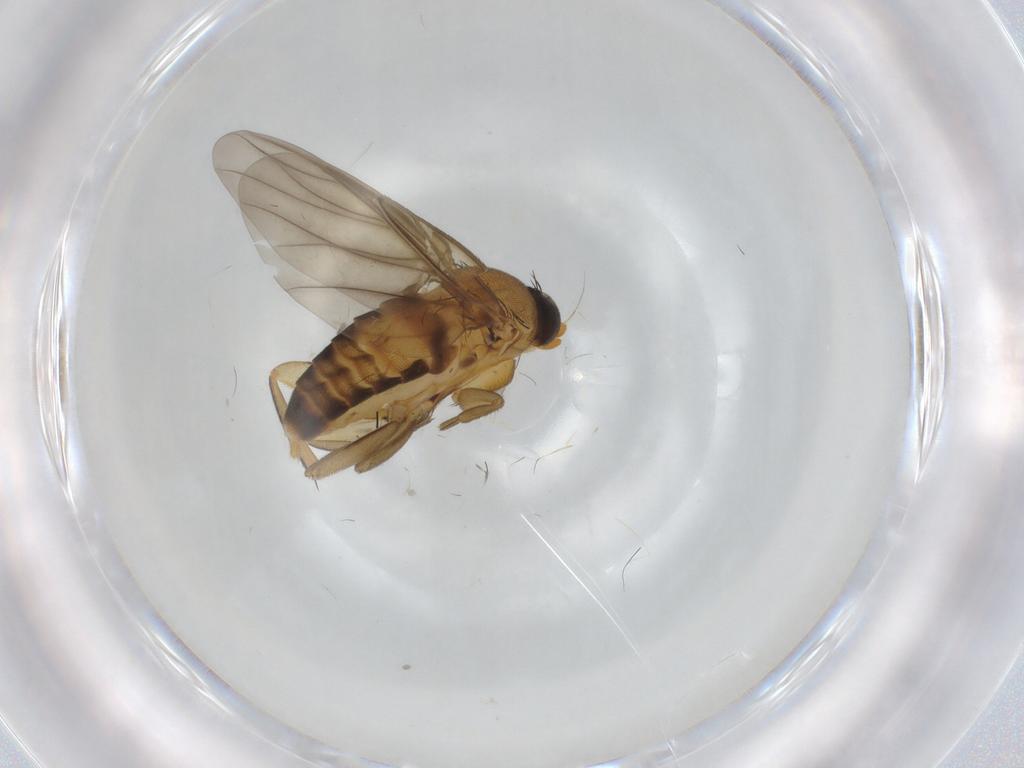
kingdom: Animalia
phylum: Arthropoda
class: Insecta
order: Diptera
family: Phoridae
